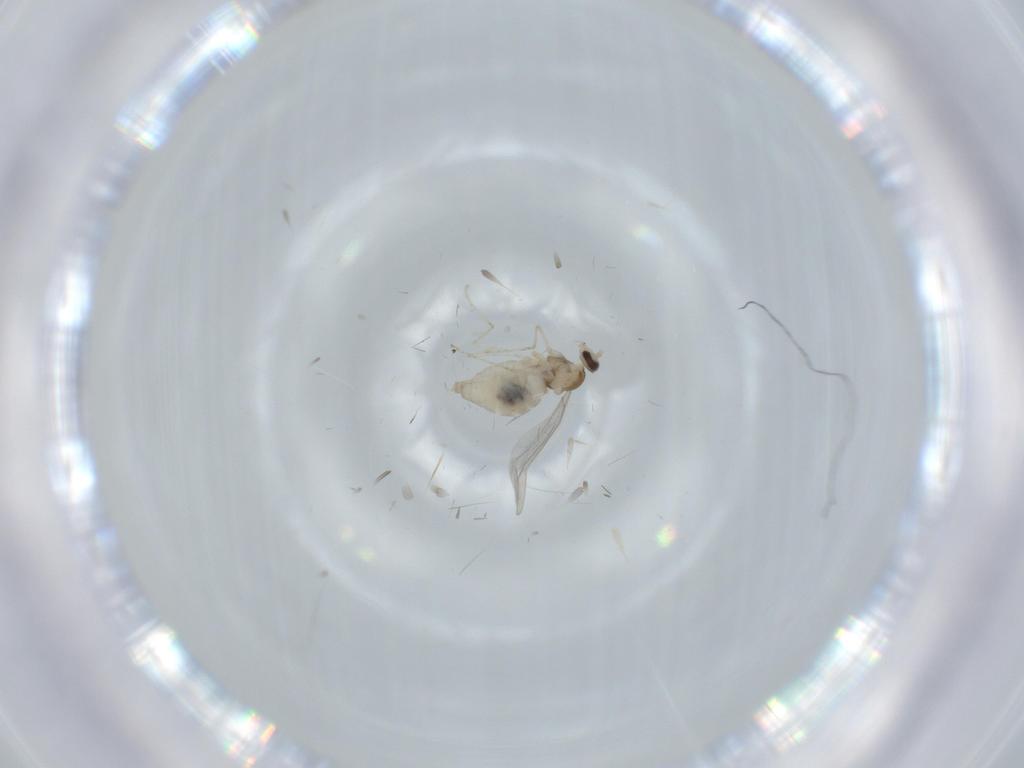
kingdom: Animalia
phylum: Arthropoda
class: Insecta
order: Diptera
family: Cecidomyiidae
